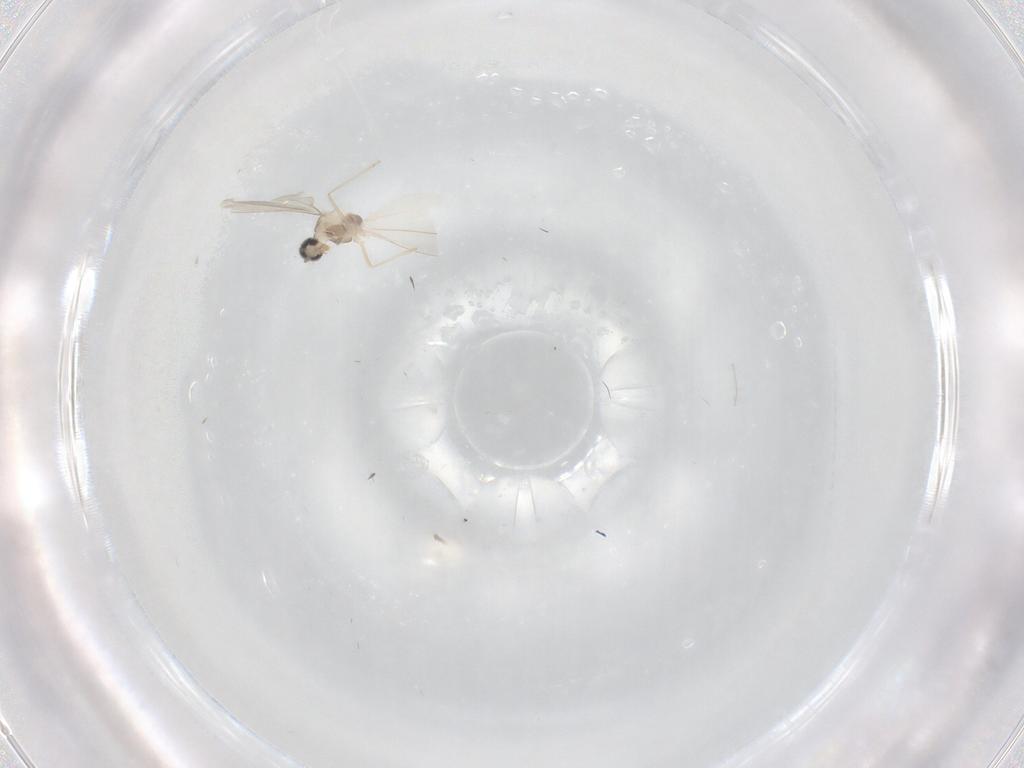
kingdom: Animalia
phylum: Arthropoda
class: Insecta
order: Diptera
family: Cecidomyiidae
